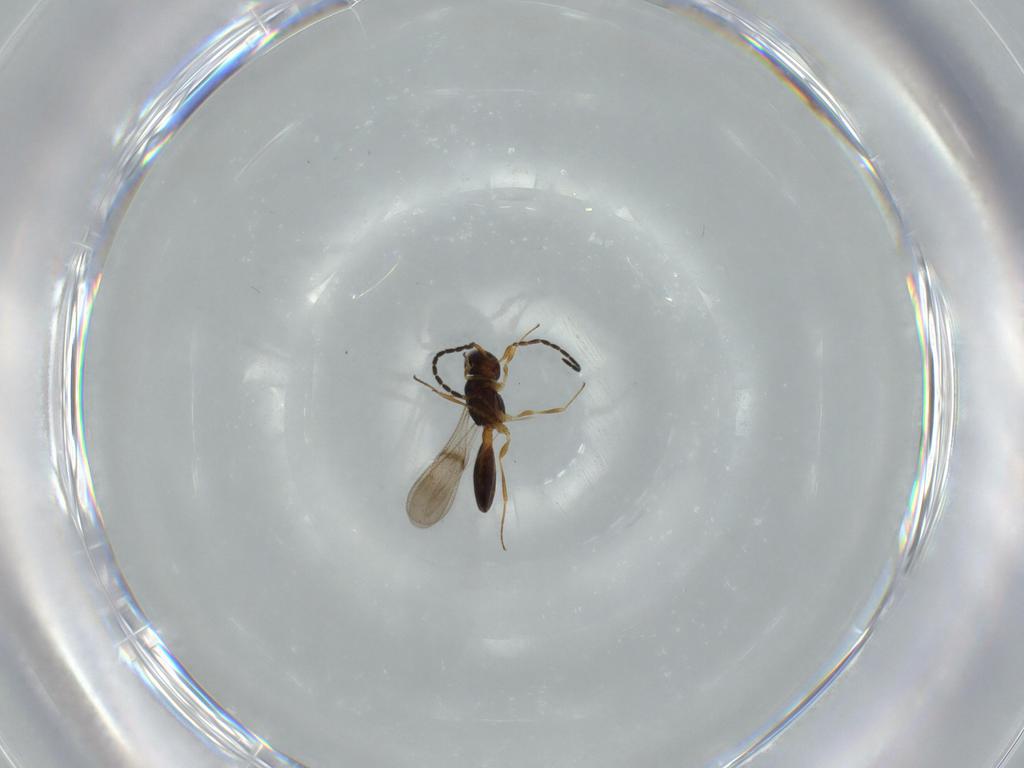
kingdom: Animalia
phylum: Arthropoda
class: Insecta
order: Hymenoptera
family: Scelionidae
